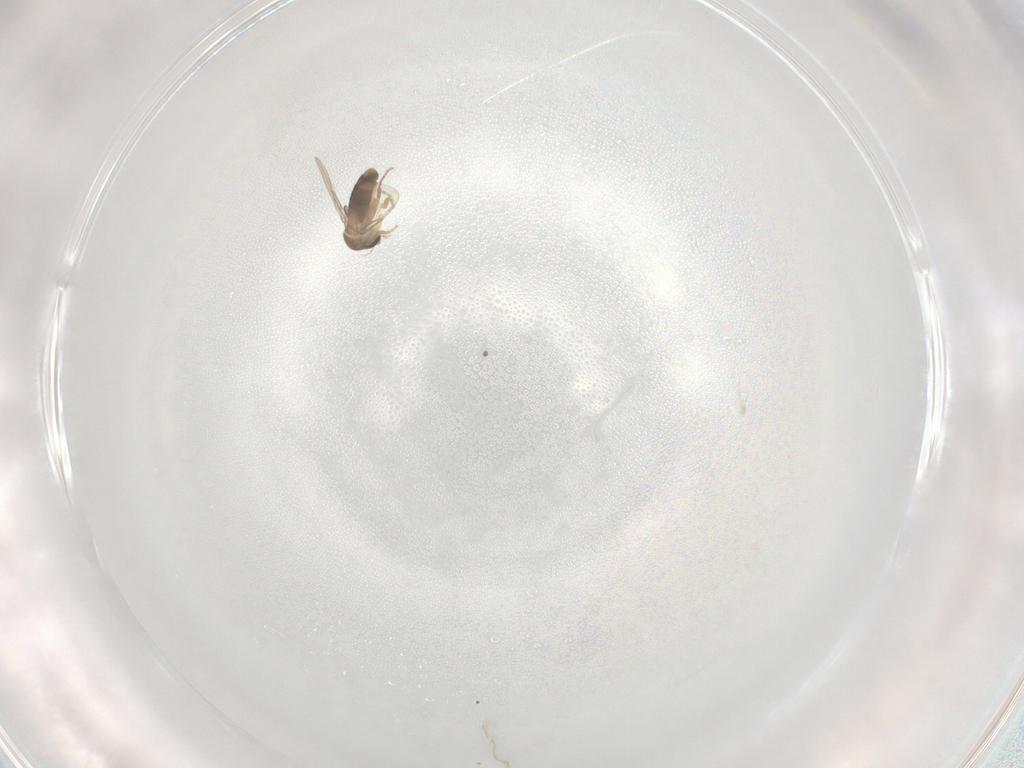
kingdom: Animalia
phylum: Arthropoda
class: Insecta
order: Diptera
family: Phoridae
